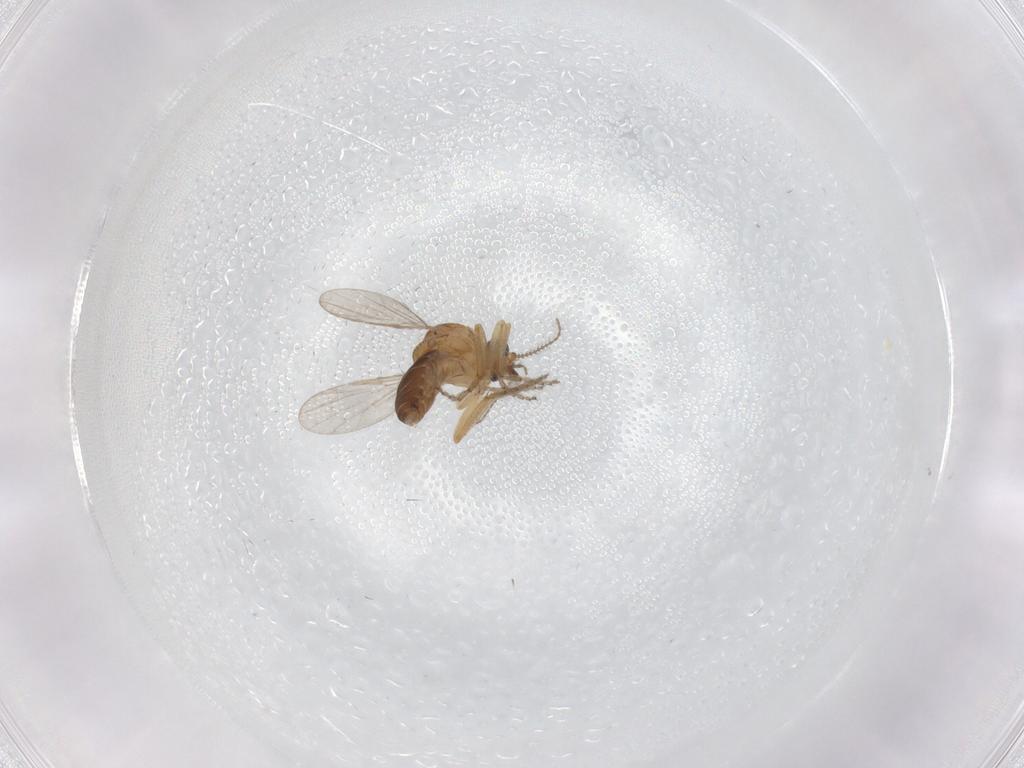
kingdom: Animalia
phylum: Arthropoda
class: Insecta
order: Diptera
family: Ceratopogonidae
